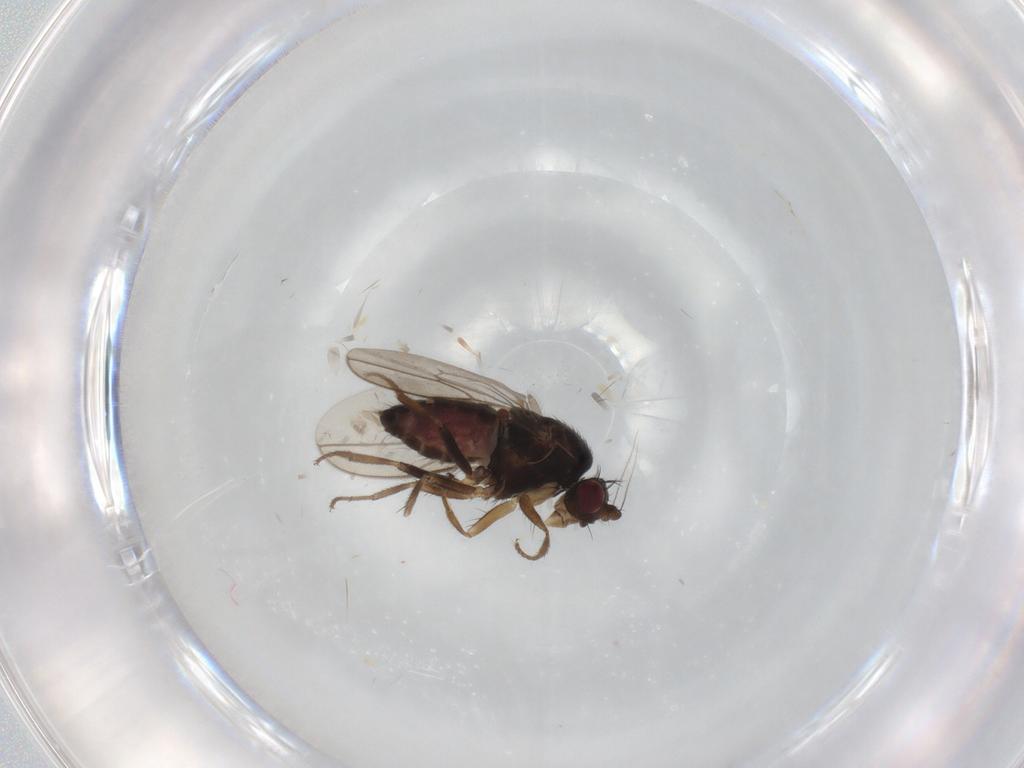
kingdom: Animalia
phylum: Arthropoda
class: Insecta
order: Diptera
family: Sphaeroceridae
